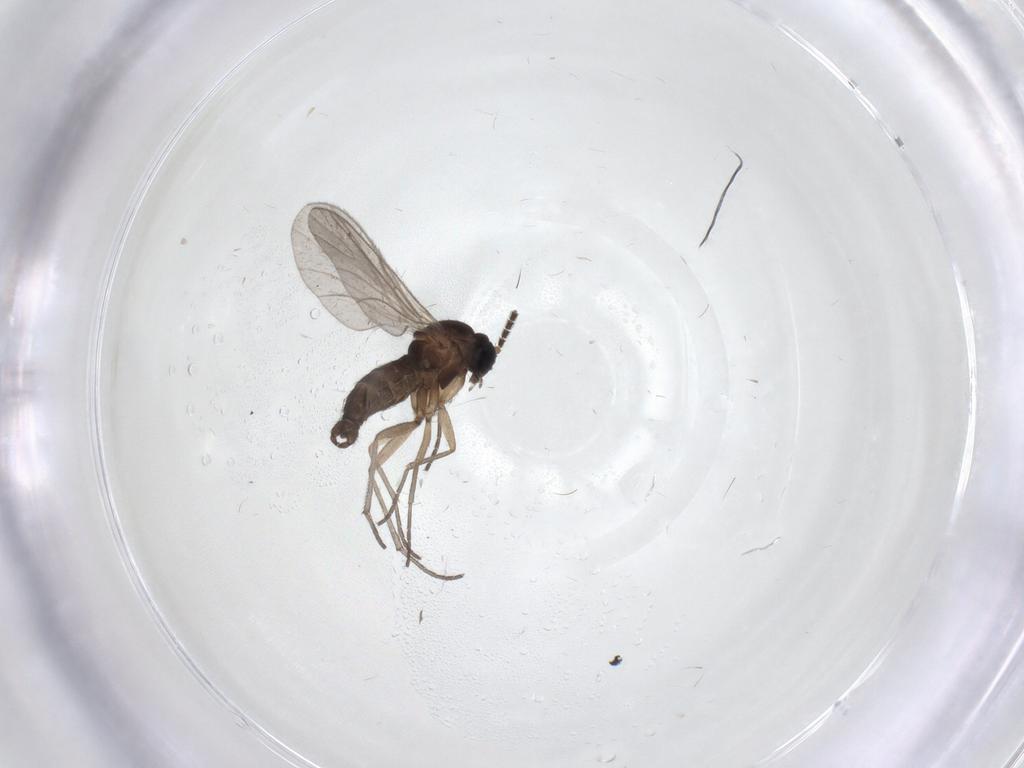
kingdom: Animalia
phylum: Arthropoda
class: Insecta
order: Diptera
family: Sciaridae
